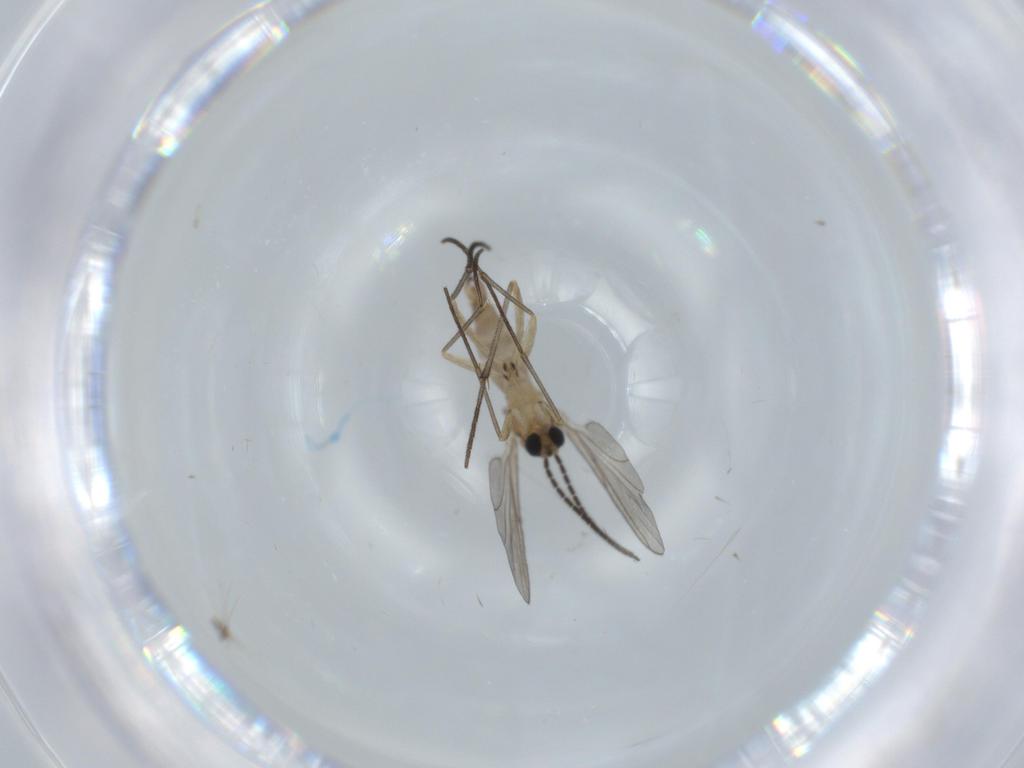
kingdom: Animalia
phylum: Arthropoda
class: Insecta
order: Diptera
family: Sciaridae
